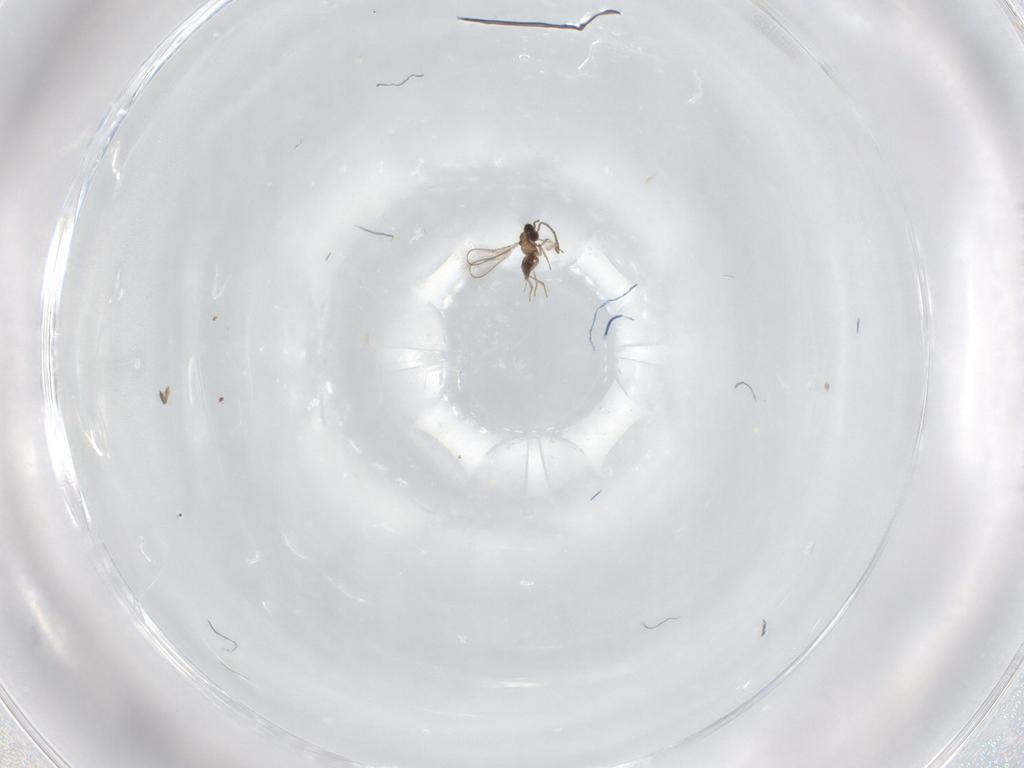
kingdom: Animalia
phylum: Arthropoda
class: Insecta
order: Hymenoptera
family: Mymaridae
